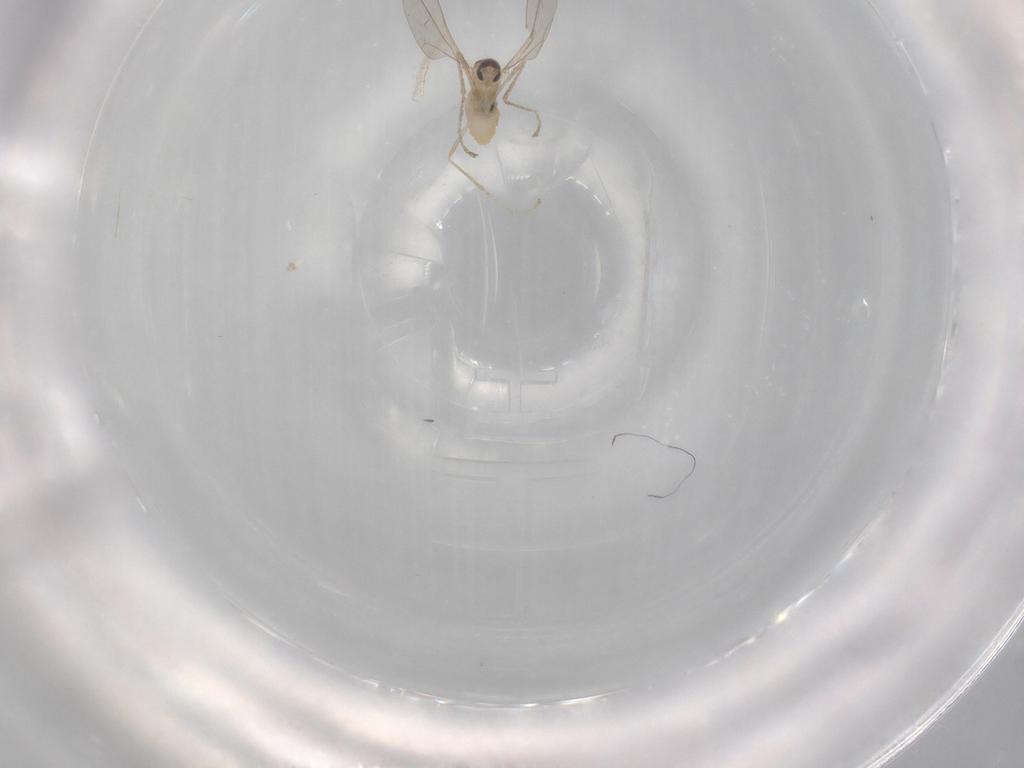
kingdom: Animalia
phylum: Arthropoda
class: Insecta
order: Diptera
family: Cecidomyiidae
